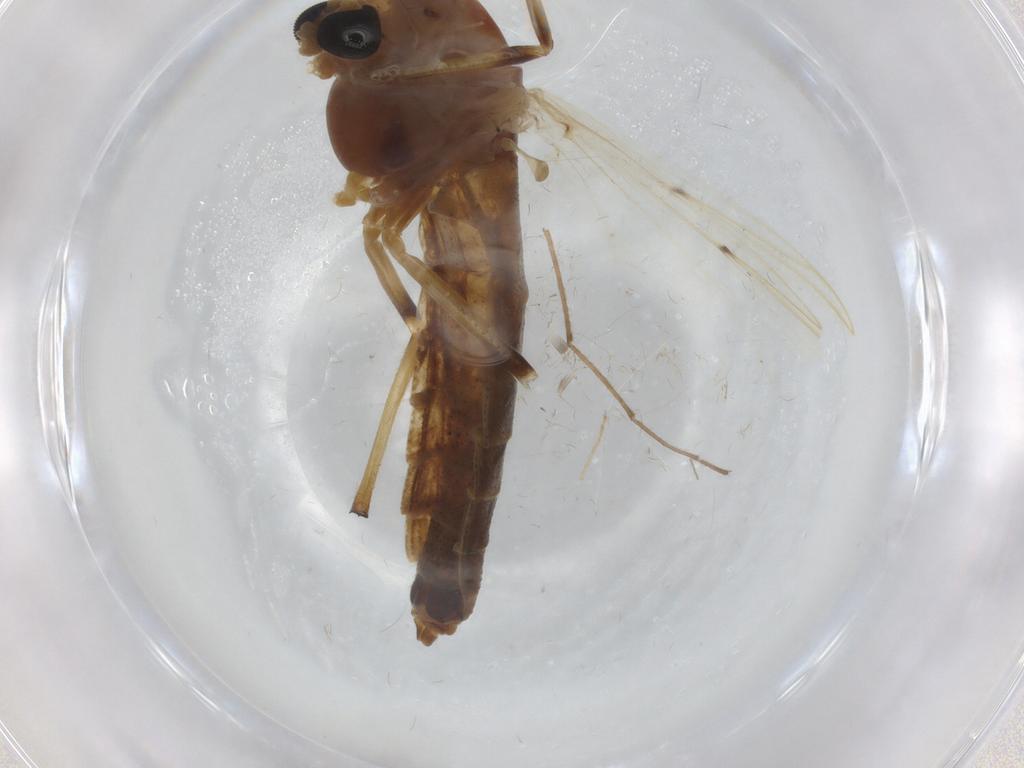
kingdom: Animalia
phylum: Arthropoda
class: Insecta
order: Diptera
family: Chironomidae
